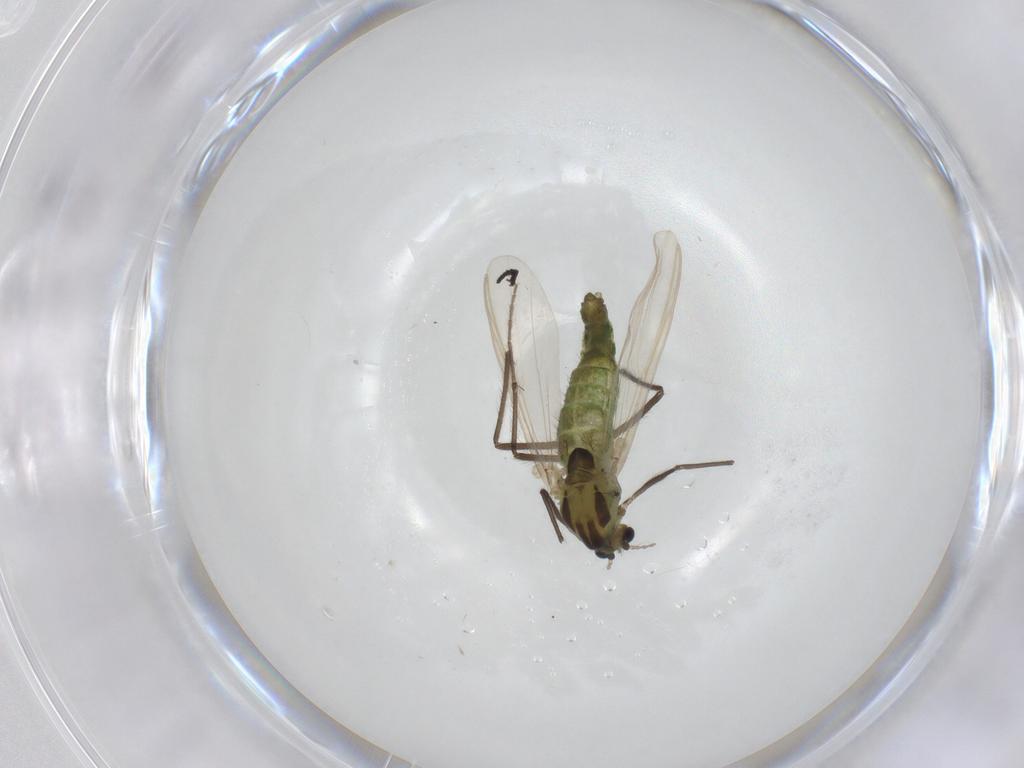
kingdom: Animalia
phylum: Arthropoda
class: Insecta
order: Diptera
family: Chironomidae
